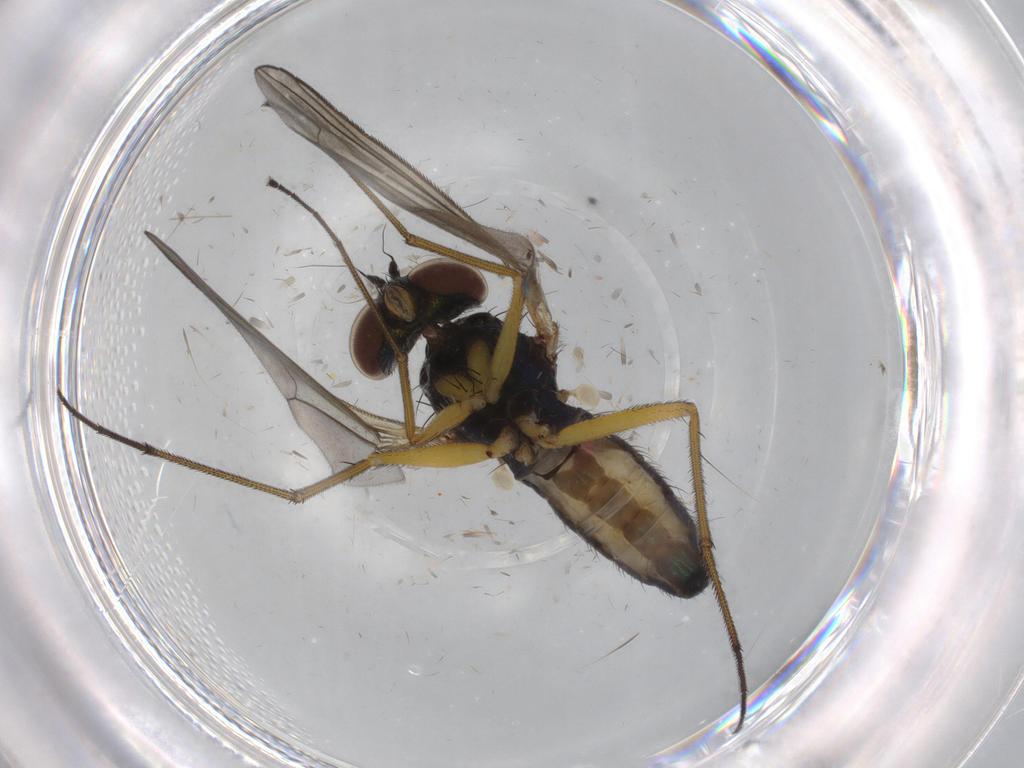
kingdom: Animalia
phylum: Arthropoda
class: Insecta
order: Diptera
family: Dolichopodidae
